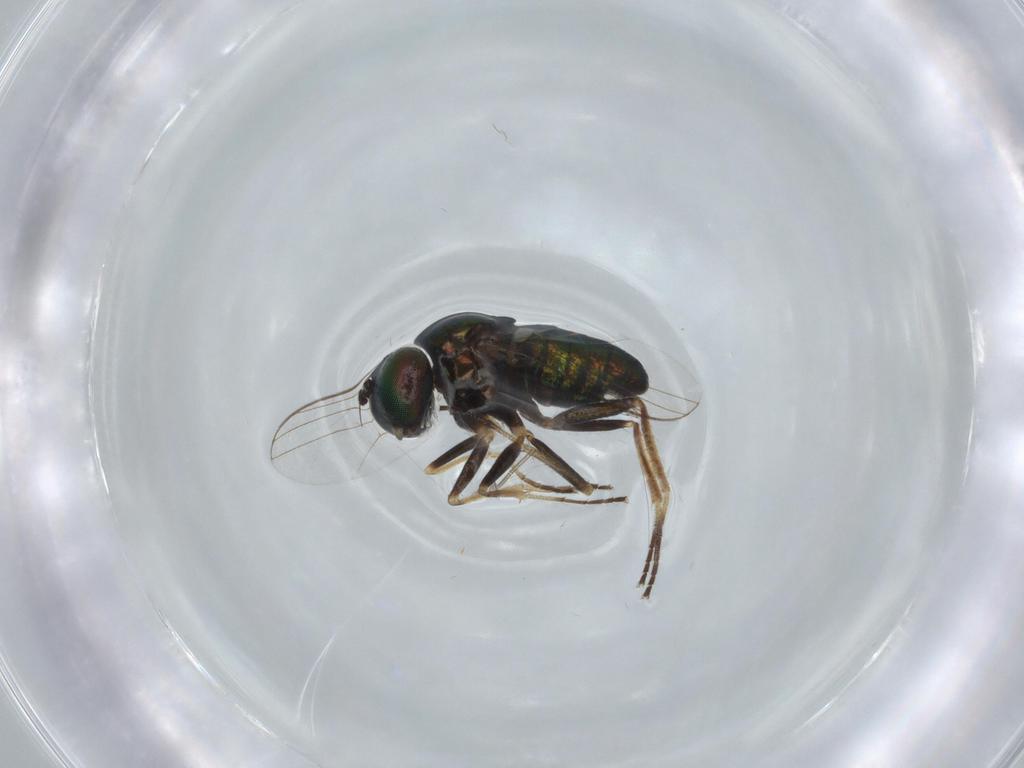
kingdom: Animalia
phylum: Arthropoda
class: Insecta
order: Diptera
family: Chironomidae
